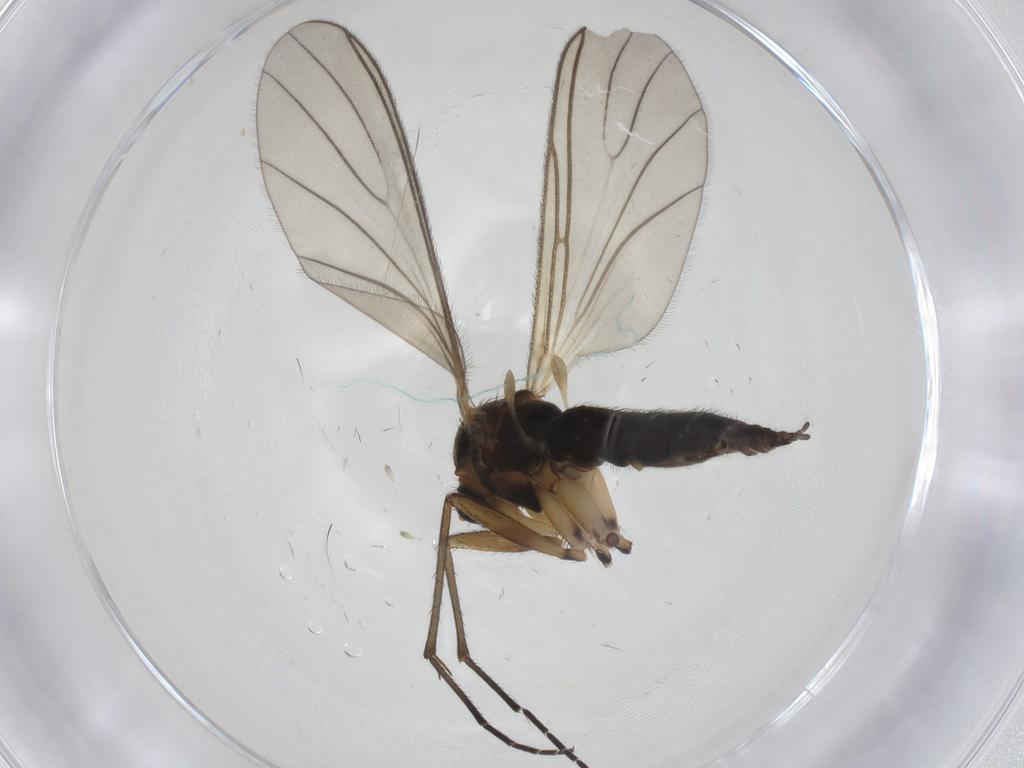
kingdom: Animalia
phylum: Arthropoda
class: Insecta
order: Diptera
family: Sciaridae
